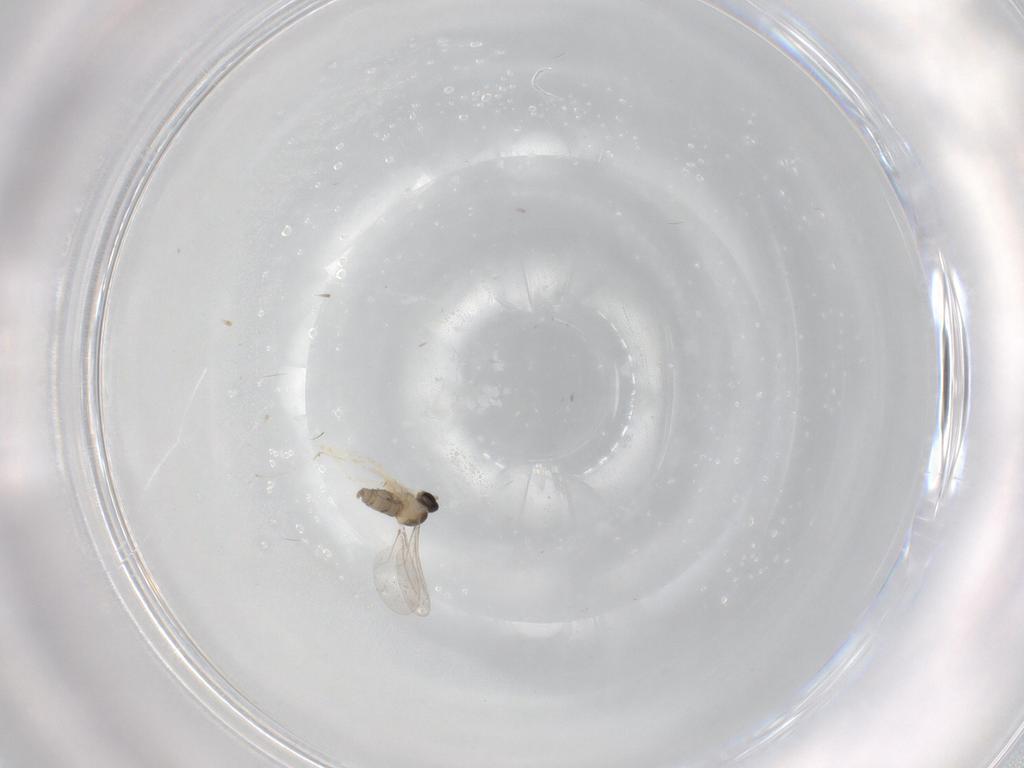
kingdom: Animalia
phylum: Arthropoda
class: Insecta
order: Diptera
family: Cecidomyiidae
